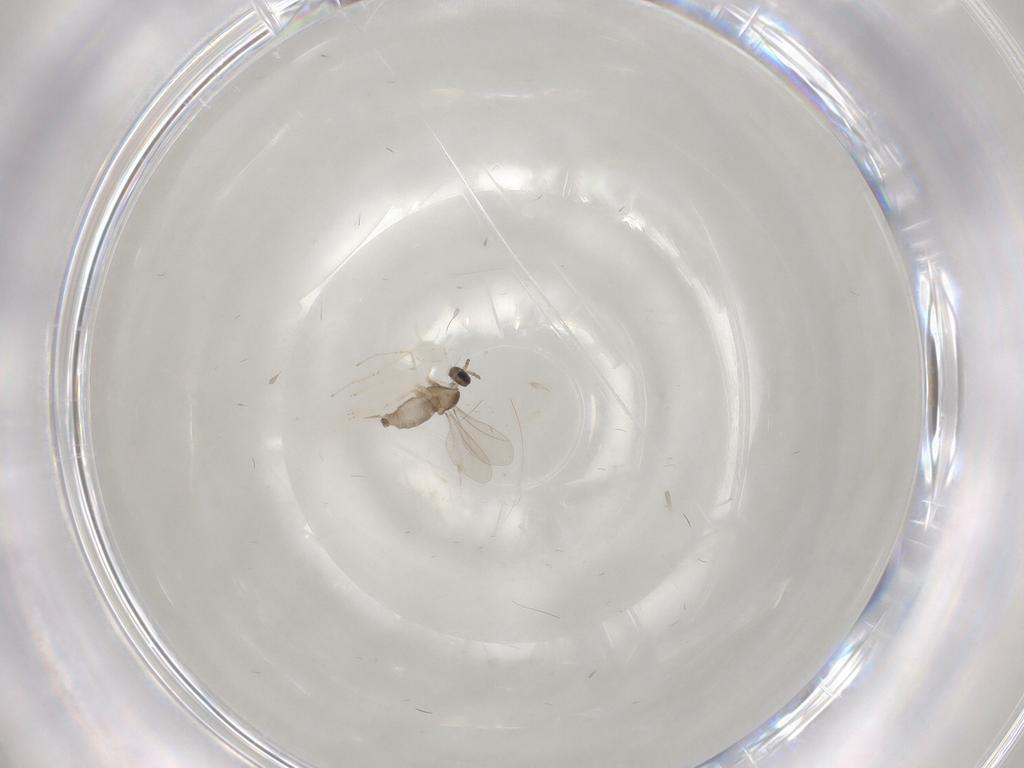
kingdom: Animalia
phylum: Arthropoda
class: Insecta
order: Diptera
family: Cecidomyiidae
